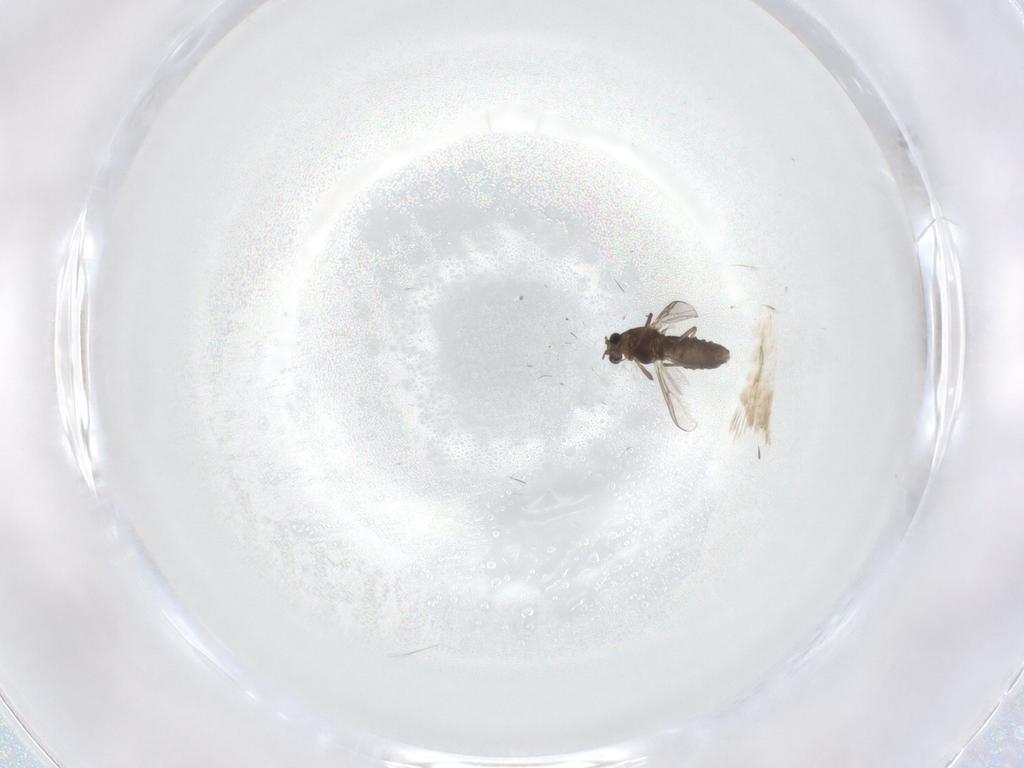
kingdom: Animalia
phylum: Arthropoda
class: Insecta
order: Diptera
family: Chironomidae
